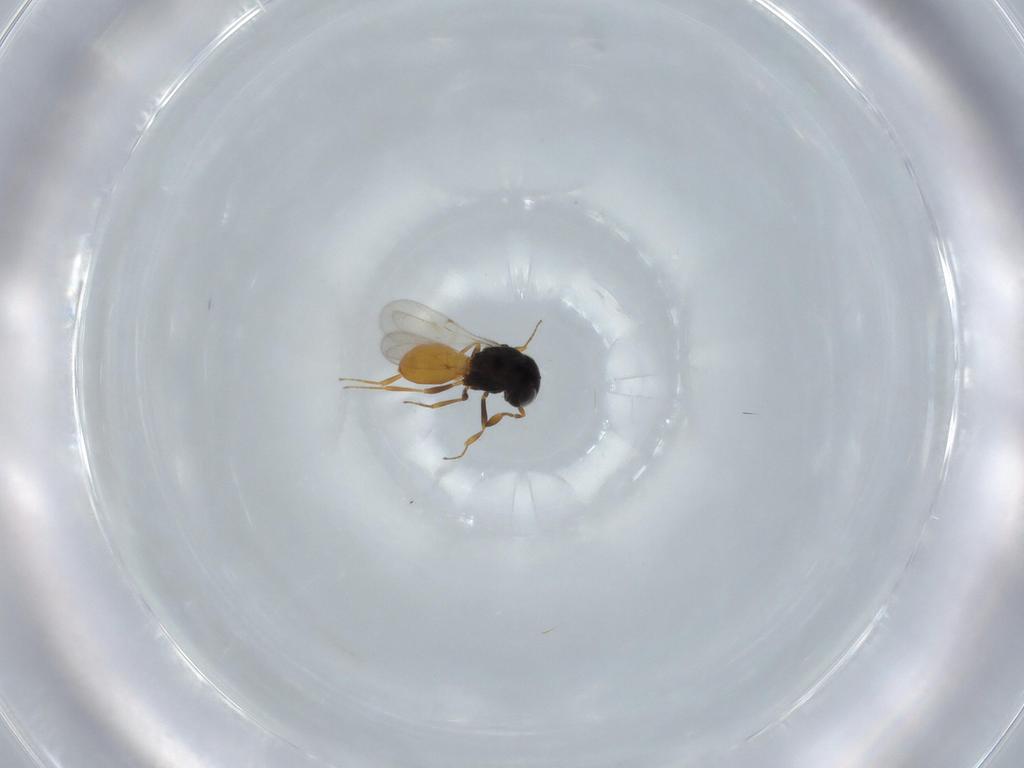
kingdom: Animalia
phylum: Arthropoda
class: Insecta
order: Hymenoptera
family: Scelionidae
